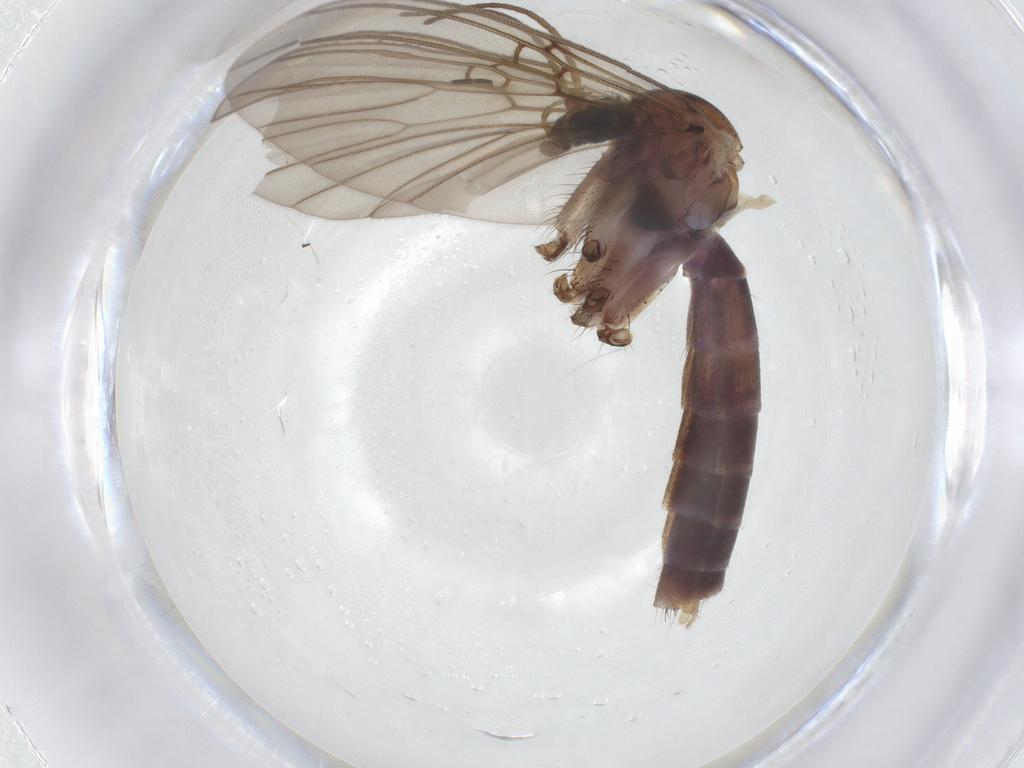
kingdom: Animalia
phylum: Arthropoda
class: Insecta
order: Diptera
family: Mycetophilidae
